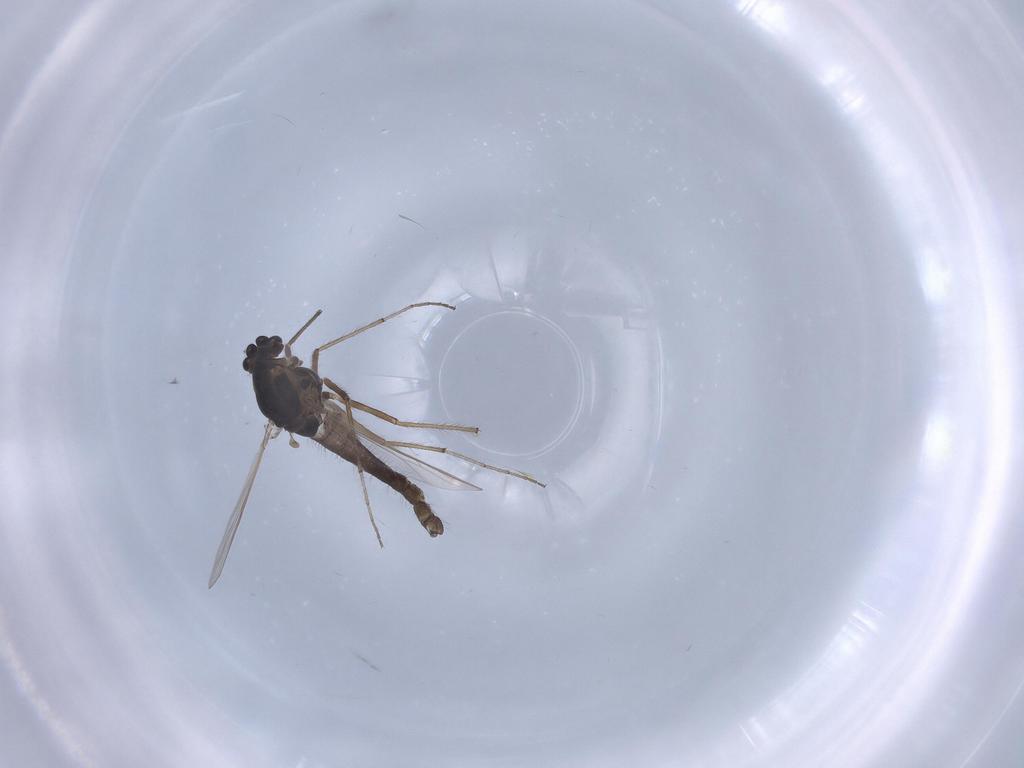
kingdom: Animalia
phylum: Arthropoda
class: Insecta
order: Diptera
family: Chironomidae
